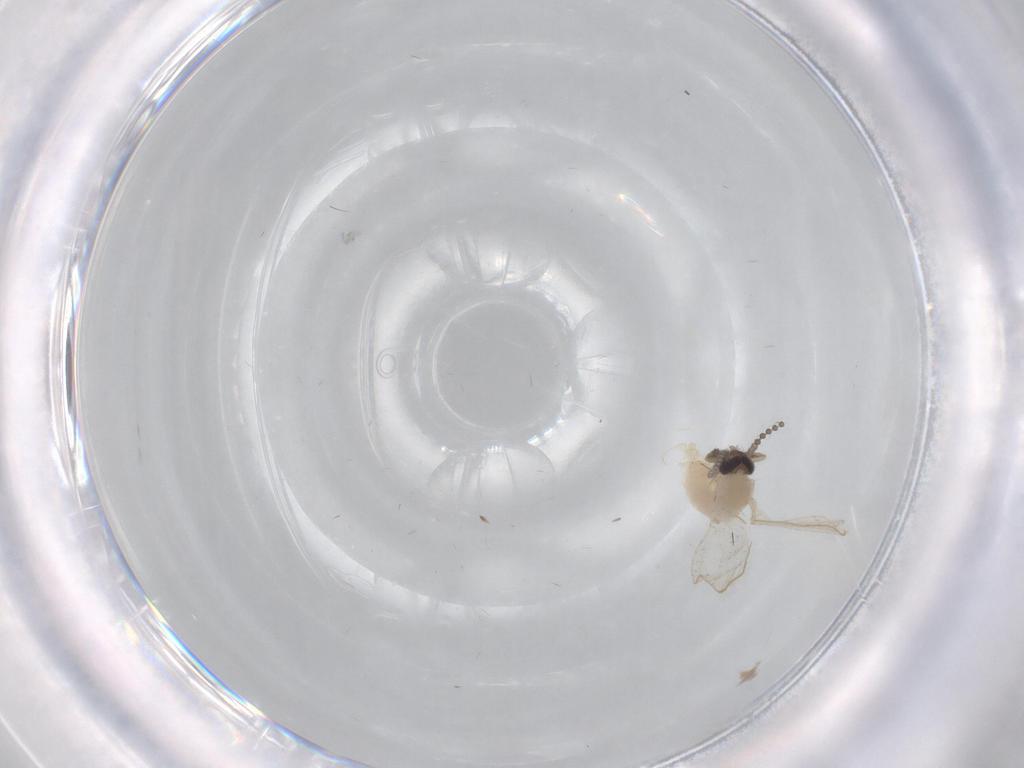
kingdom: Animalia
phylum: Arthropoda
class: Insecta
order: Diptera
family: Psychodidae
